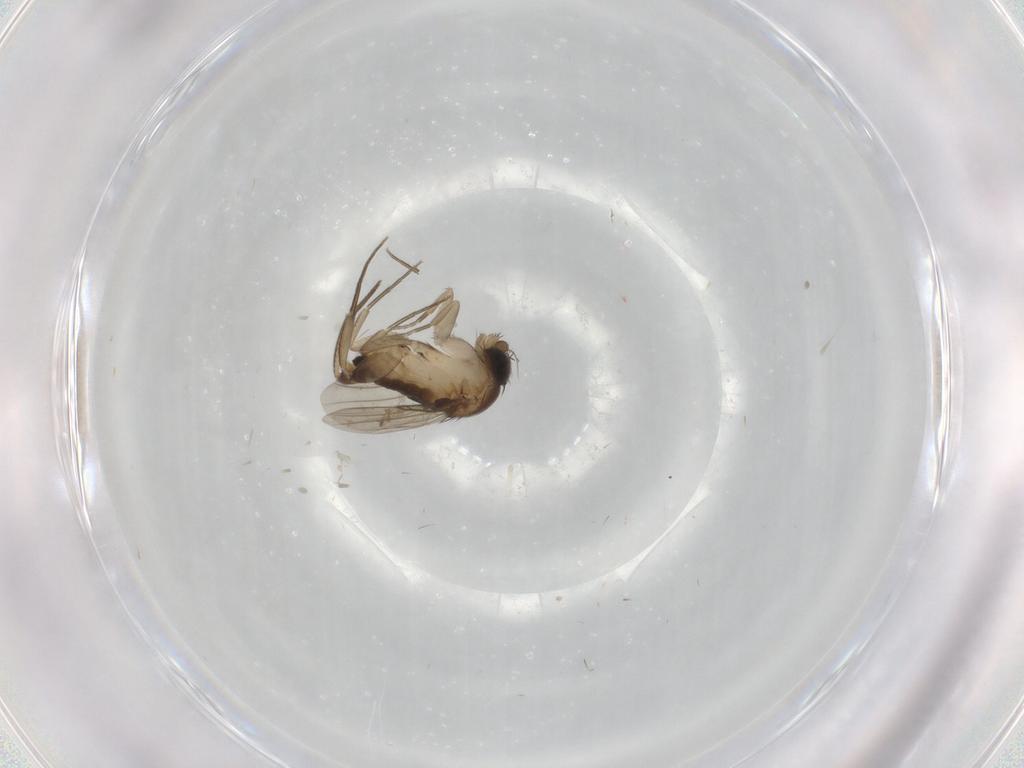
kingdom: Animalia
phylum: Arthropoda
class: Insecta
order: Diptera
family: Phoridae
